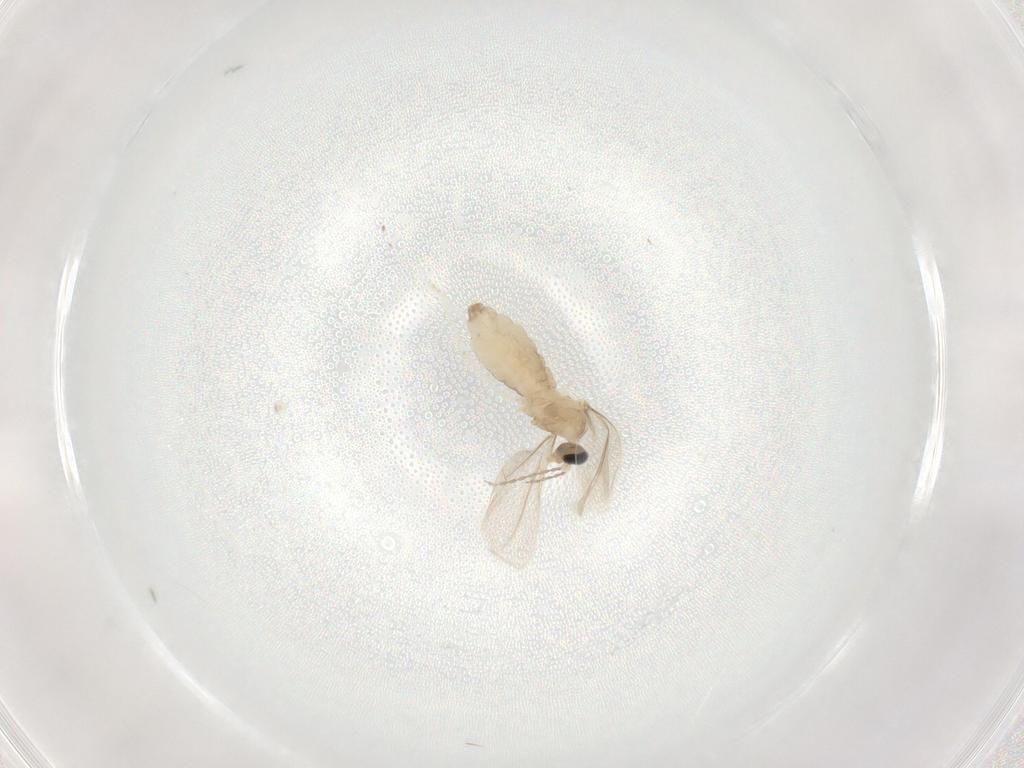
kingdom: Animalia
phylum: Arthropoda
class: Insecta
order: Diptera
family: Cecidomyiidae
